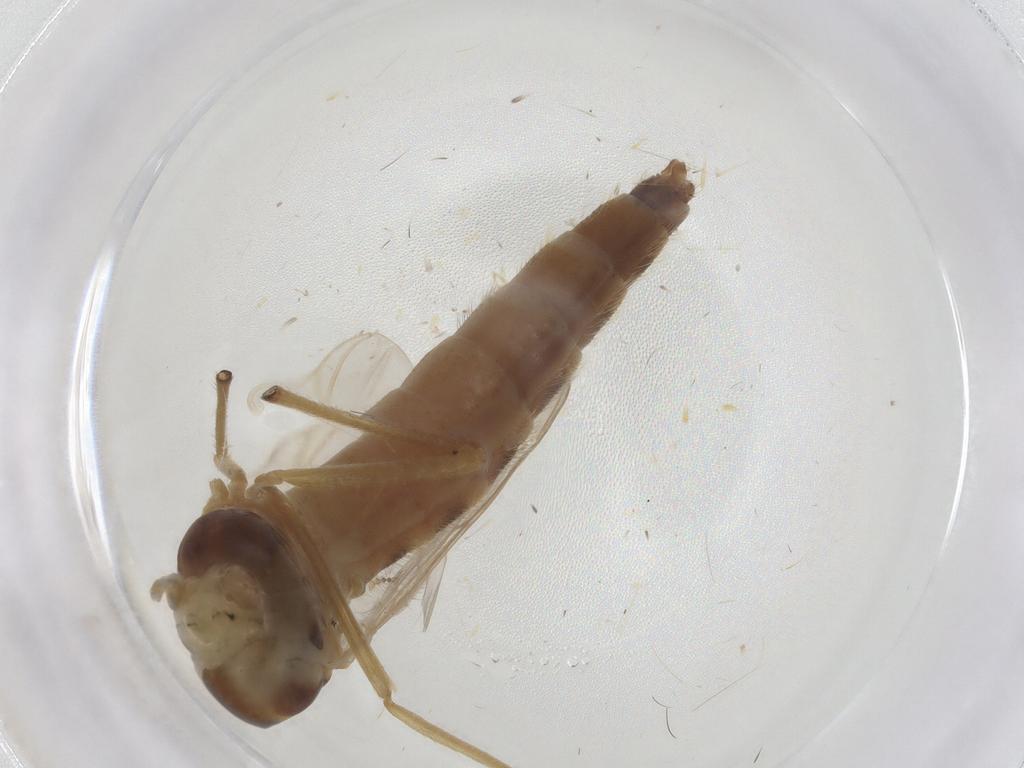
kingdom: Animalia
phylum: Arthropoda
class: Insecta
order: Diptera
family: Chironomidae
